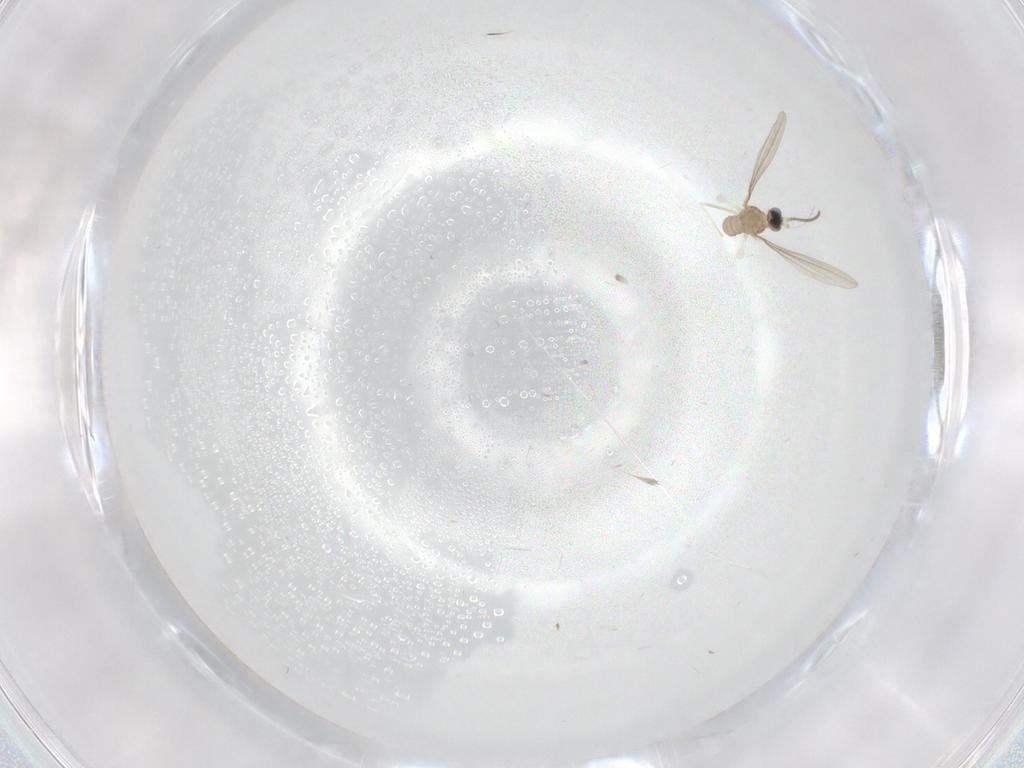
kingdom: Animalia
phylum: Arthropoda
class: Insecta
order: Diptera
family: Cecidomyiidae
